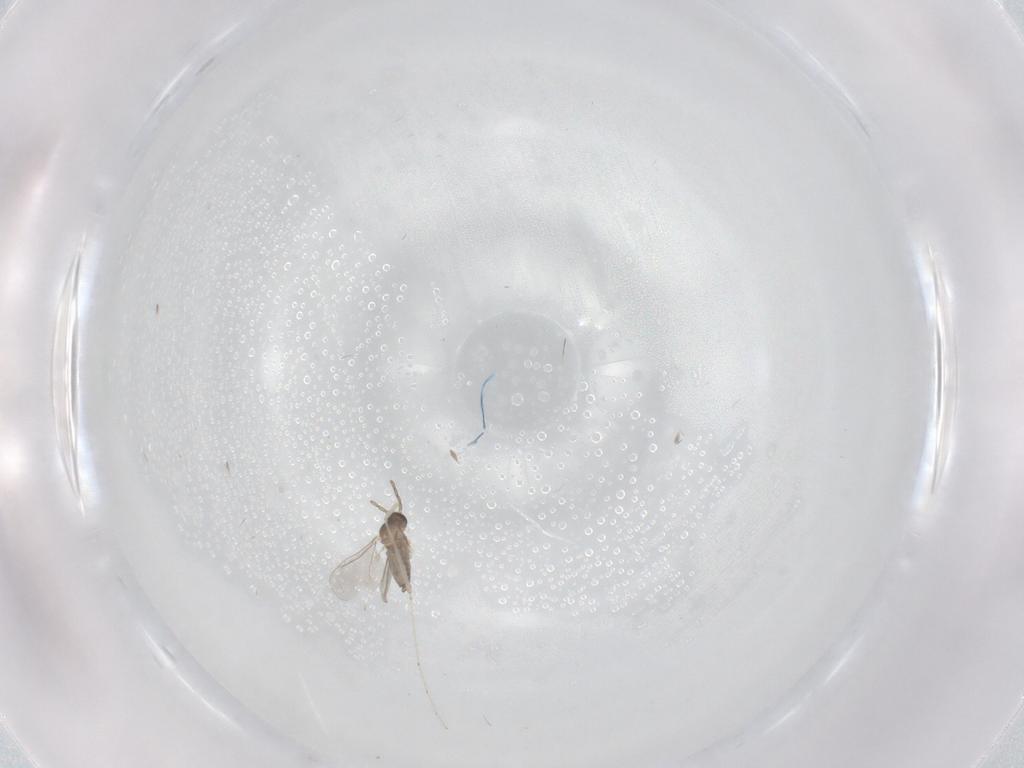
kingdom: Animalia
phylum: Arthropoda
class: Insecta
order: Diptera
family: Cecidomyiidae
